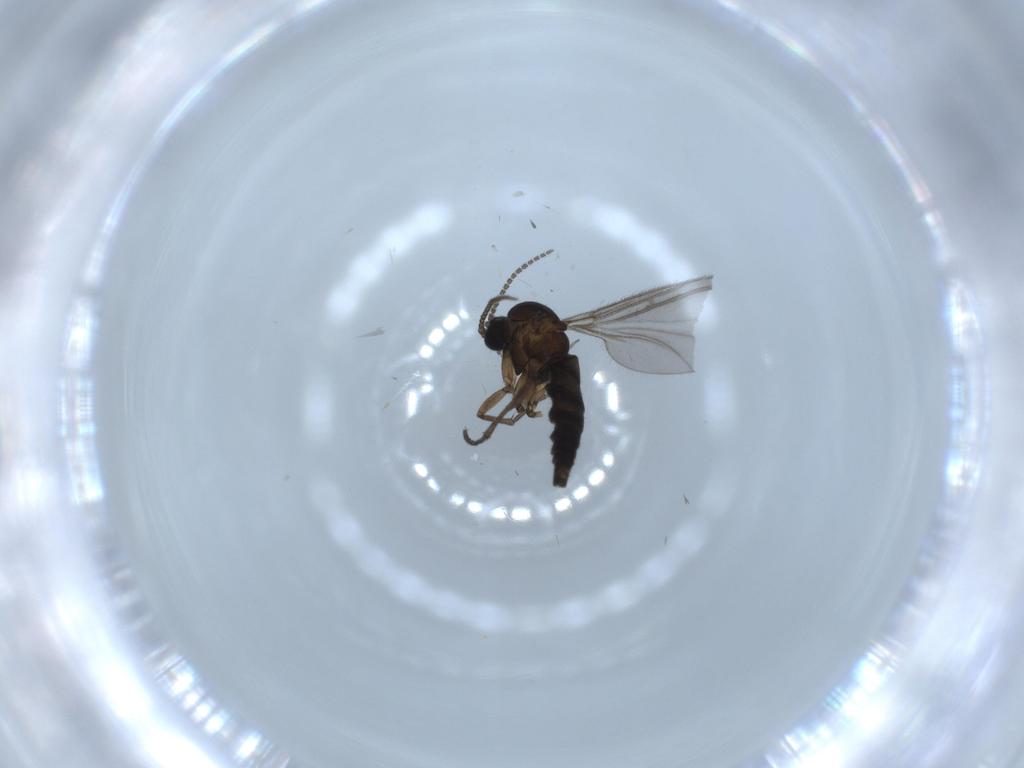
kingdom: Animalia
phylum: Arthropoda
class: Insecta
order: Diptera
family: Sciaridae
